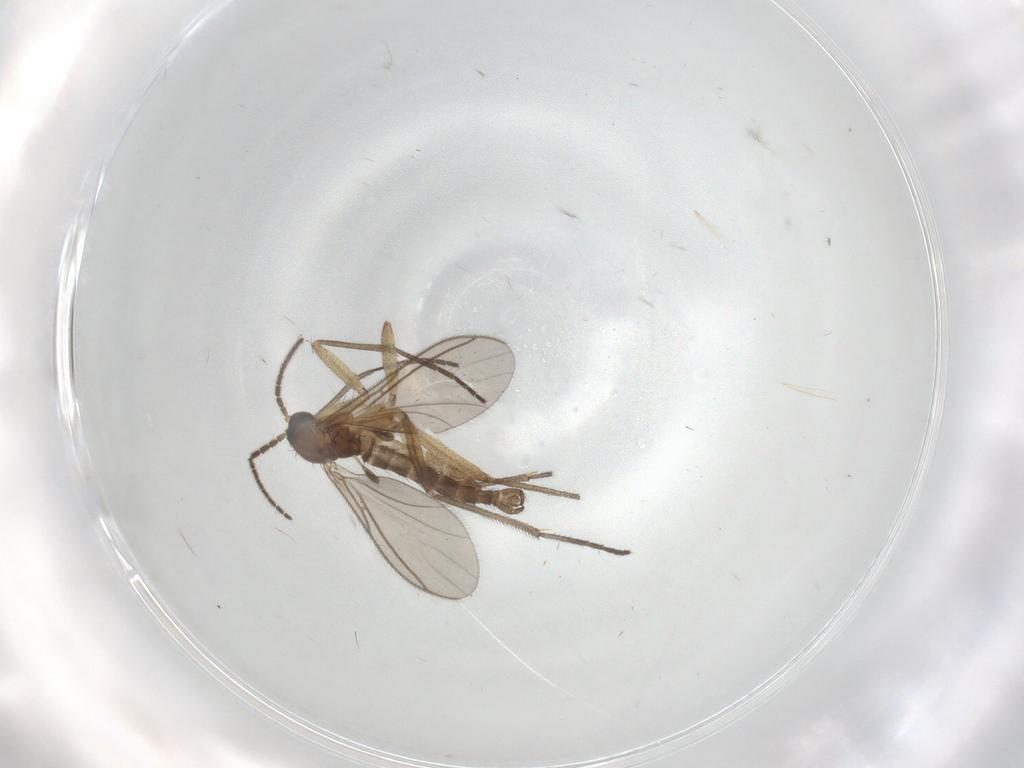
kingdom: Animalia
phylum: Arthropoda
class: Insecta
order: Diptera
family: Sciaridae
